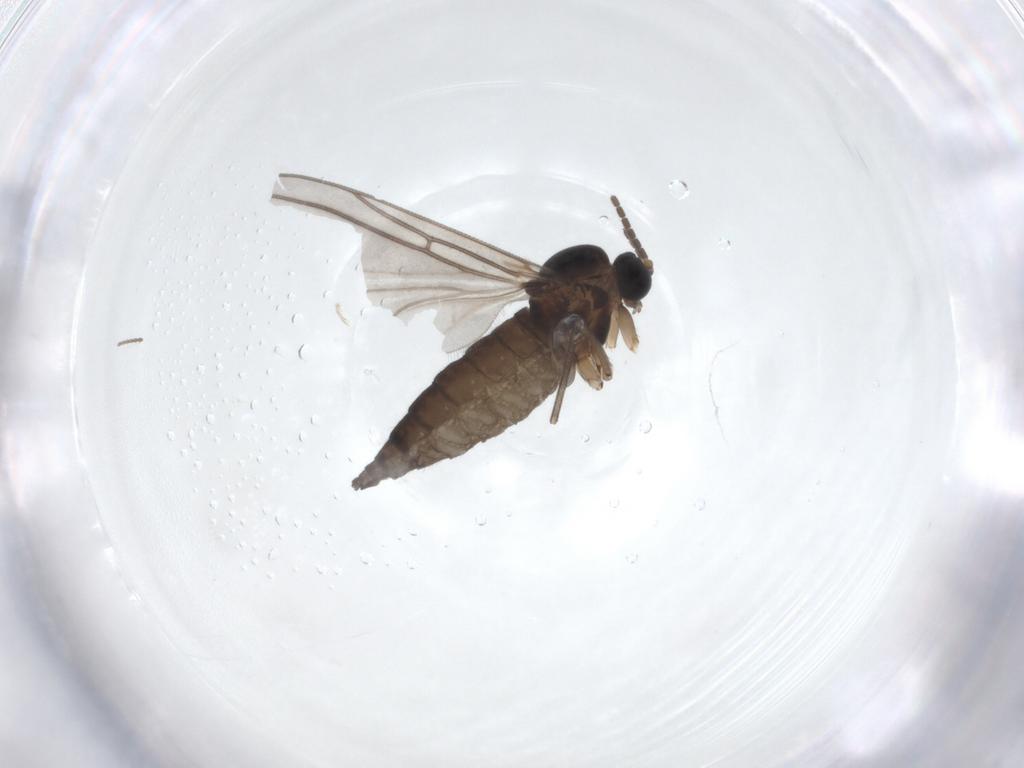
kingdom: Animalia
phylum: Arthropoda
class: Insecta
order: Diptera
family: Sciaridae
